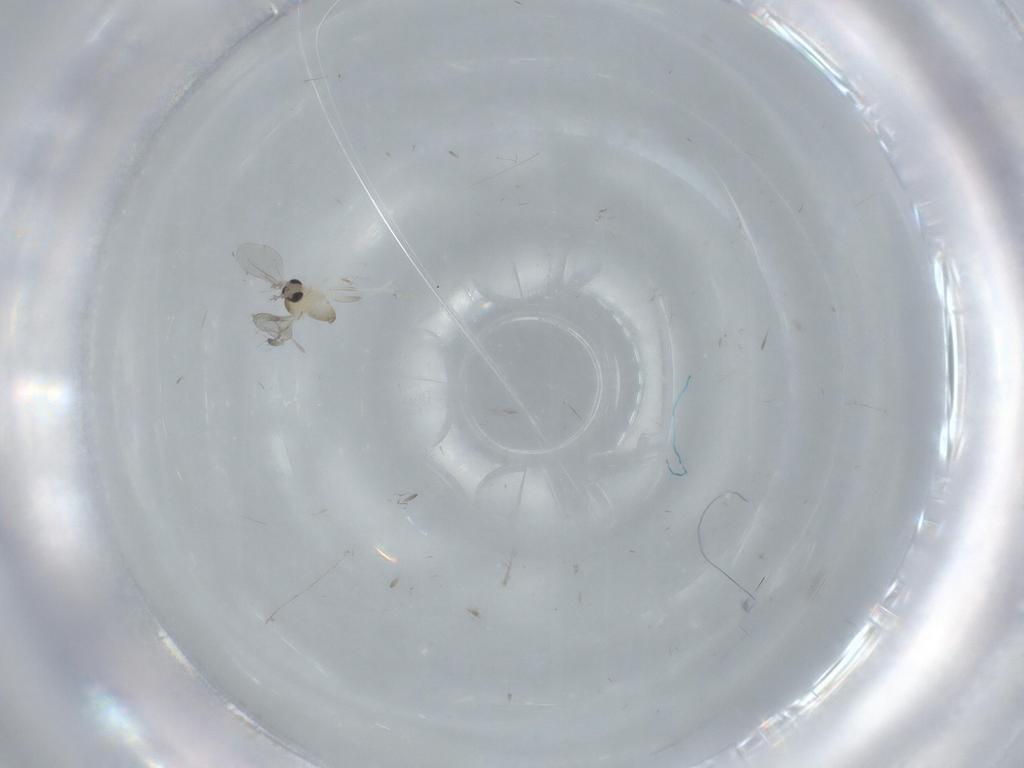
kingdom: Animalia
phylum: Arthropoda
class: Insecta
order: Diptera
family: Cecidomyiidae
